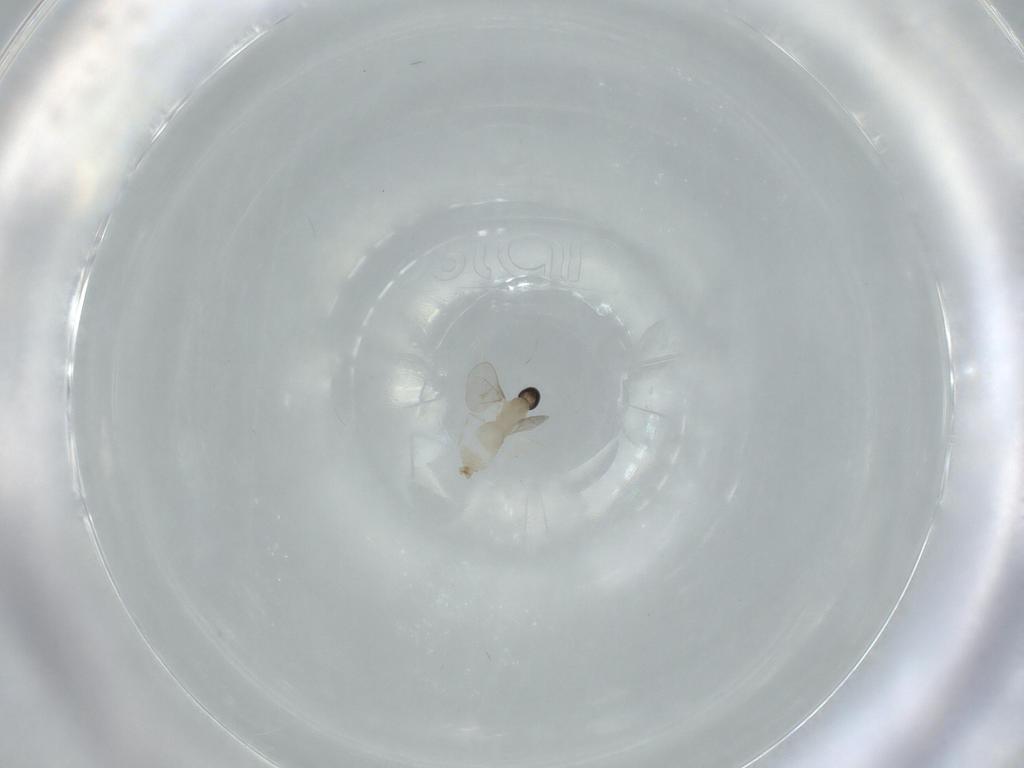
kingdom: Animalia
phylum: Arthropoda
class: Insecta
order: Diptera
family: Cecidomyiidae
